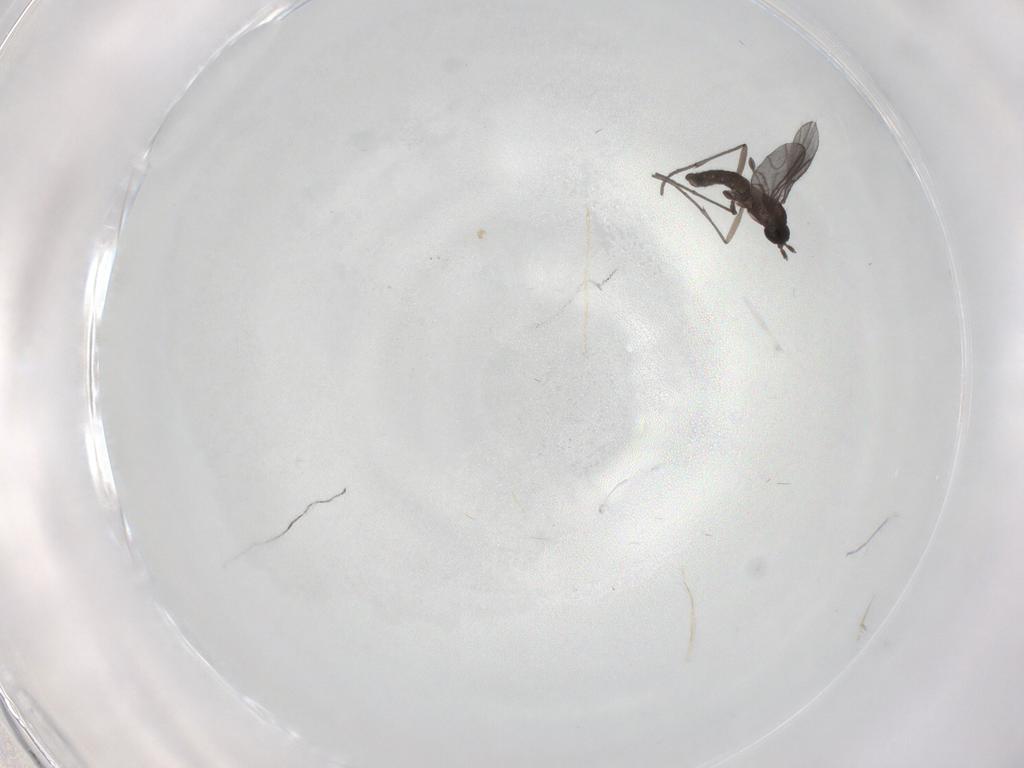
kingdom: Animalia
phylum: Arthropoda
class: Insecta
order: Diptera
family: Sciaridae
